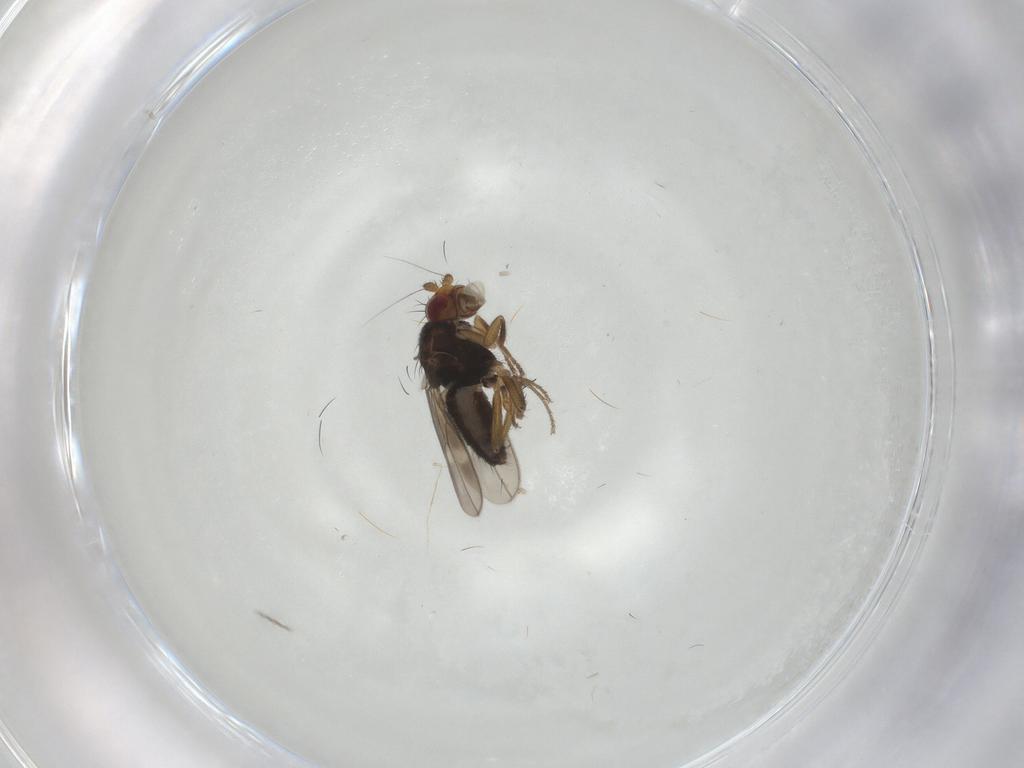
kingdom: Animalia
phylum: Arthropoda
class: Insecta
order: Diptera
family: Cecidomyiidae
